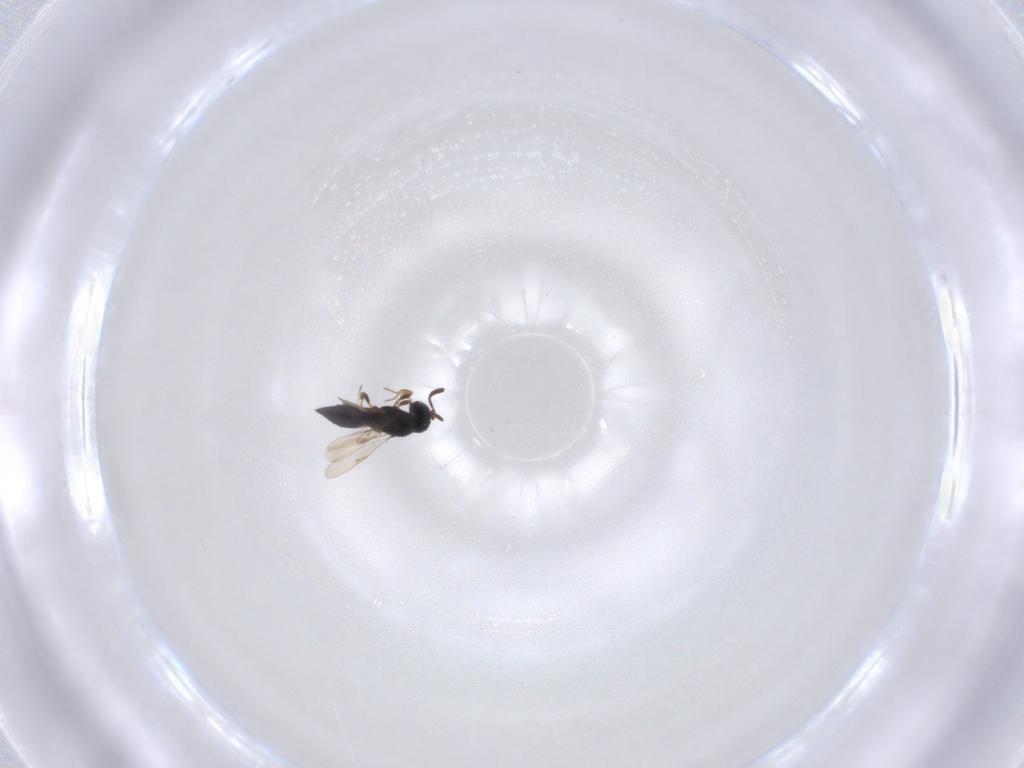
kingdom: Animalia
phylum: Arthropoda
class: Insecta
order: Hymenoptera
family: Scelionidae
